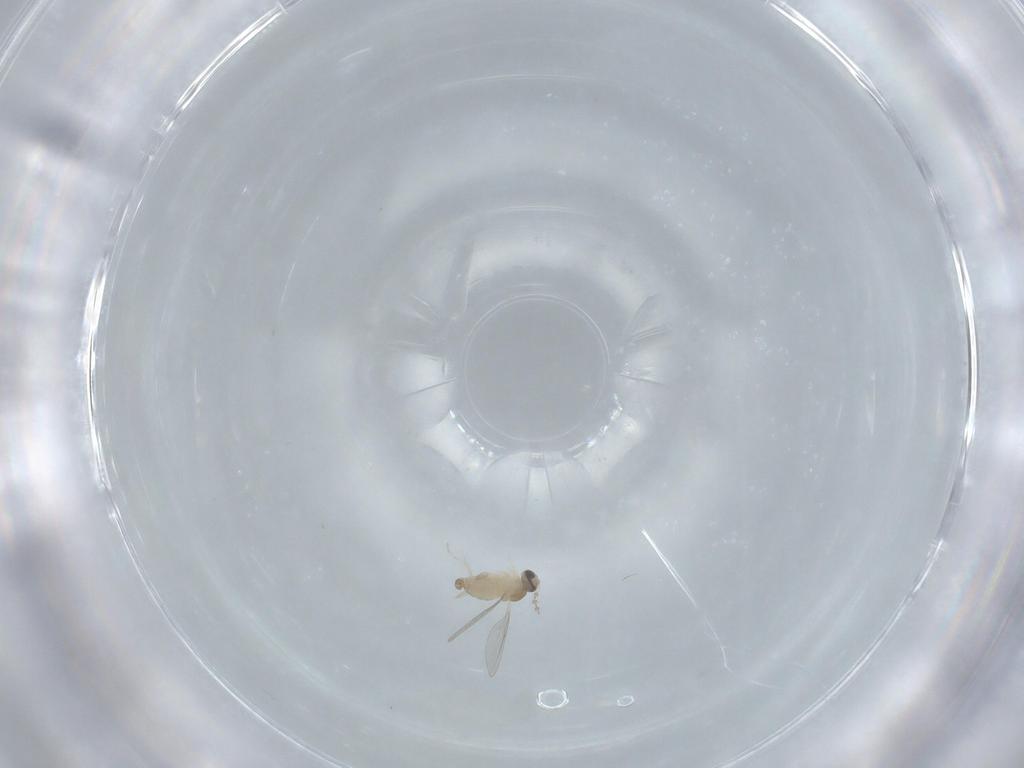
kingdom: Animalia
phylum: Arthropoda
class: Insecta
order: Diptera
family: Cecidomyiidae
